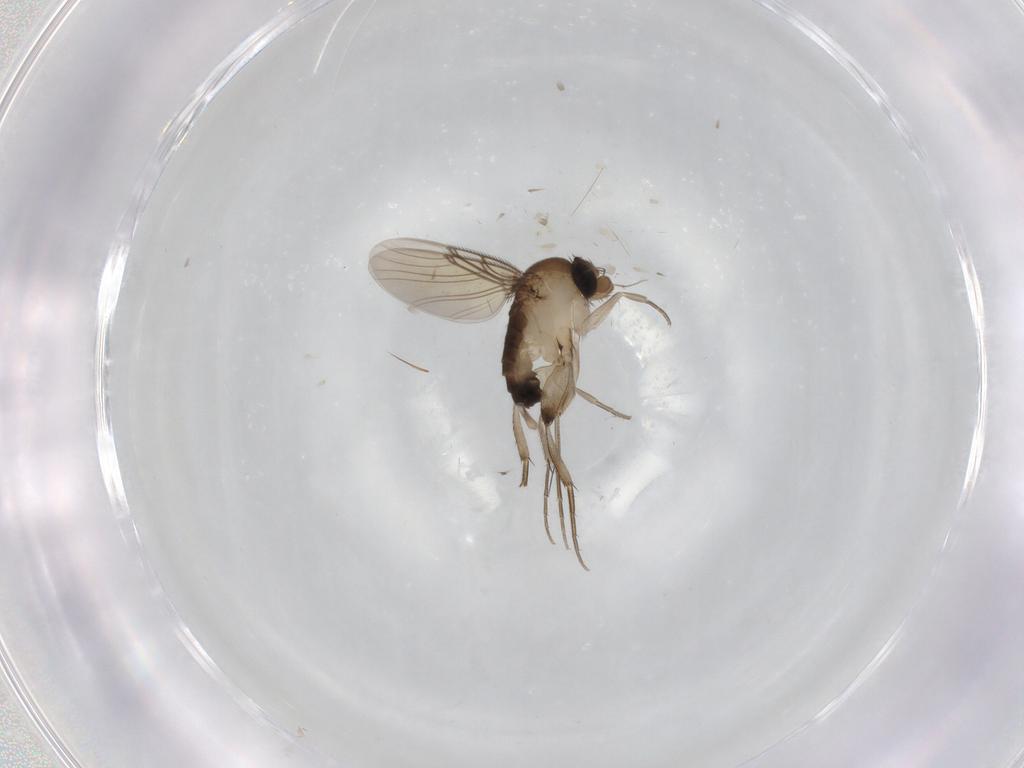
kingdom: Animalia
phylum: Arthropoda
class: Insecta
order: Diptera
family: Phoridae
